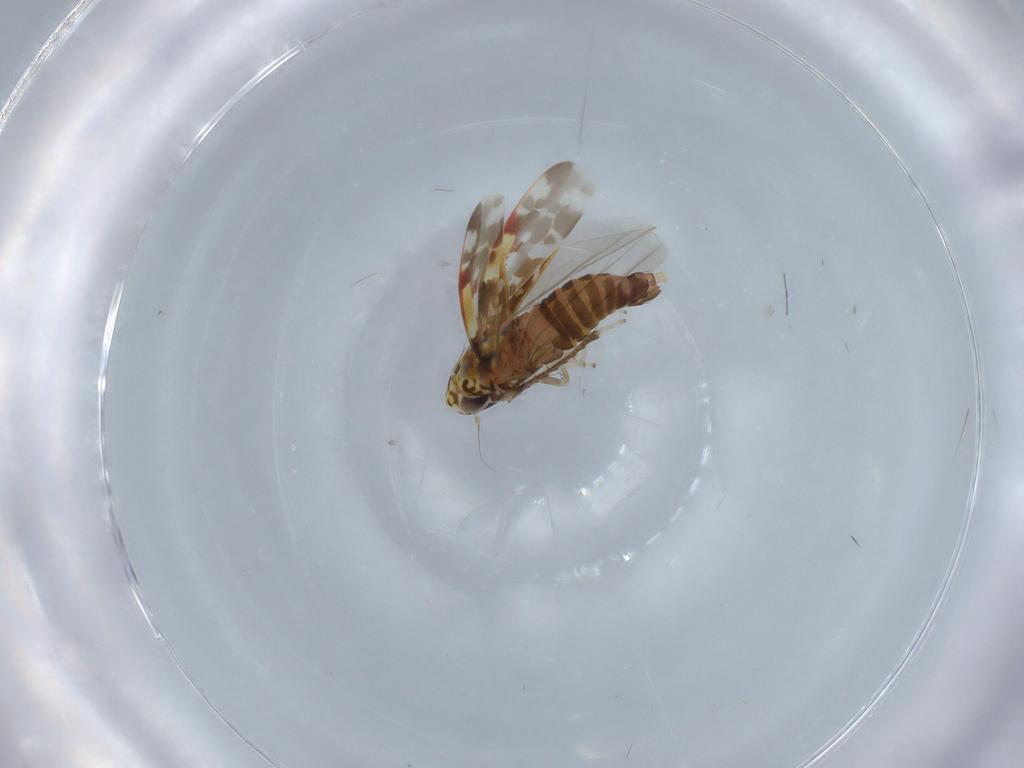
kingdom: Animalia
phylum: Arthropoda
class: Insecta
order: Hemiptera
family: Cicadellidae
